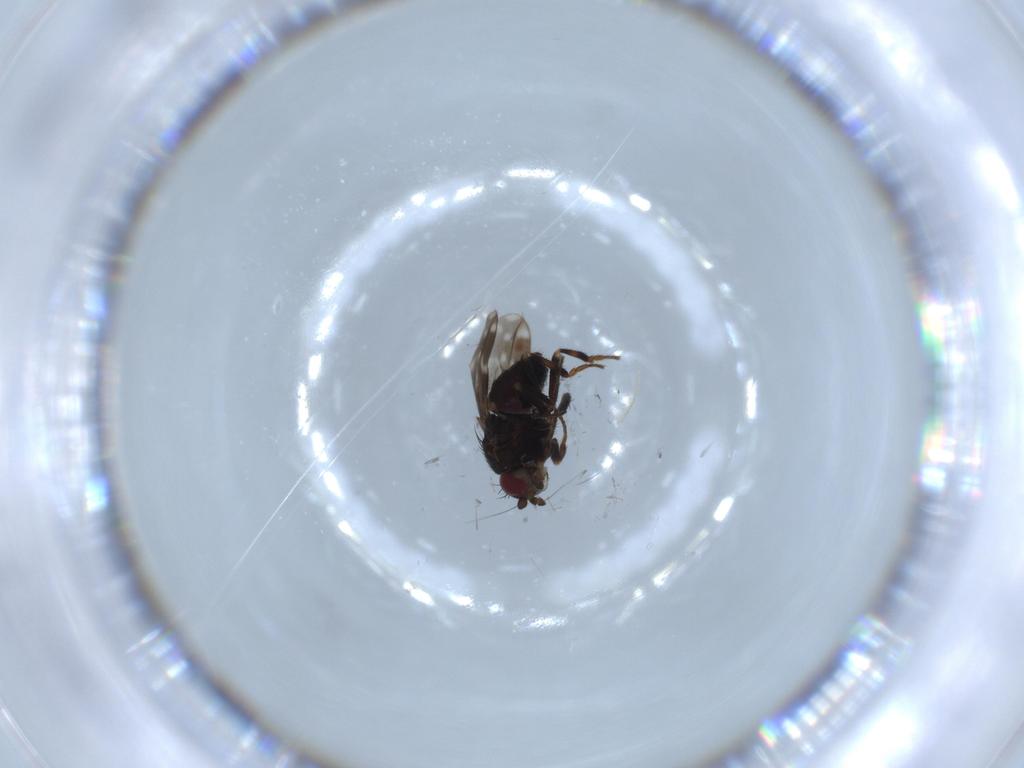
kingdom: Animalia
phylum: Arthropoda
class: Insecta
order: Diptera
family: Sphaeroceridae
